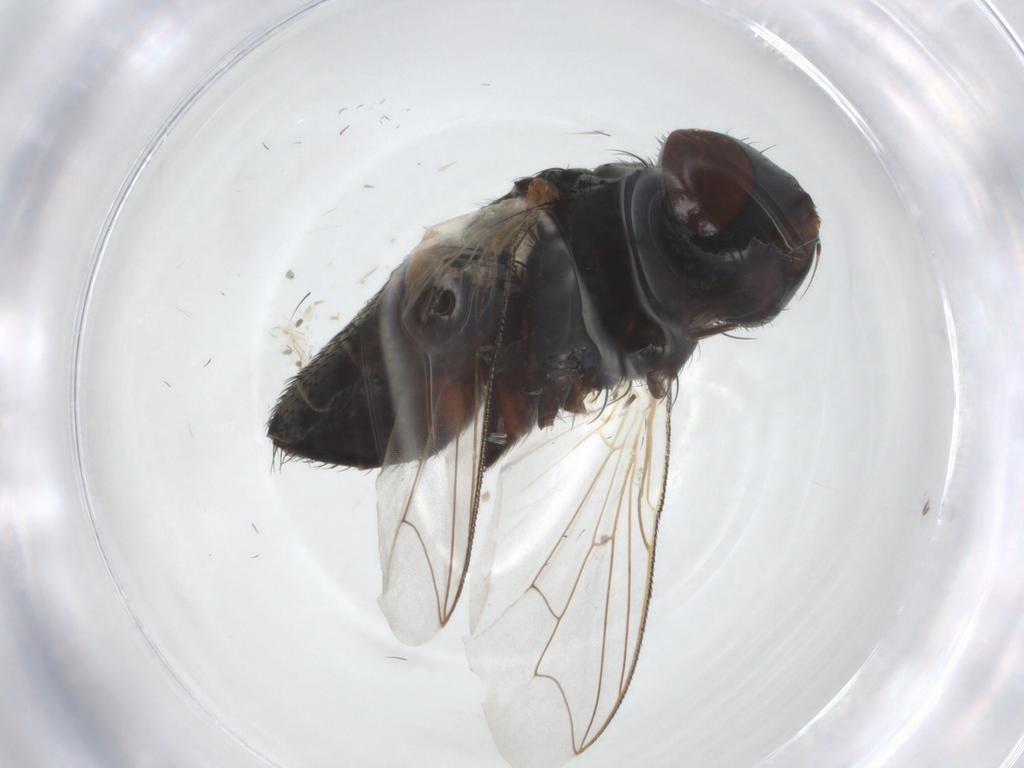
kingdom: Animalia
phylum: Arthropoda
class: Insecta
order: Diptera
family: Sarcophagidae
